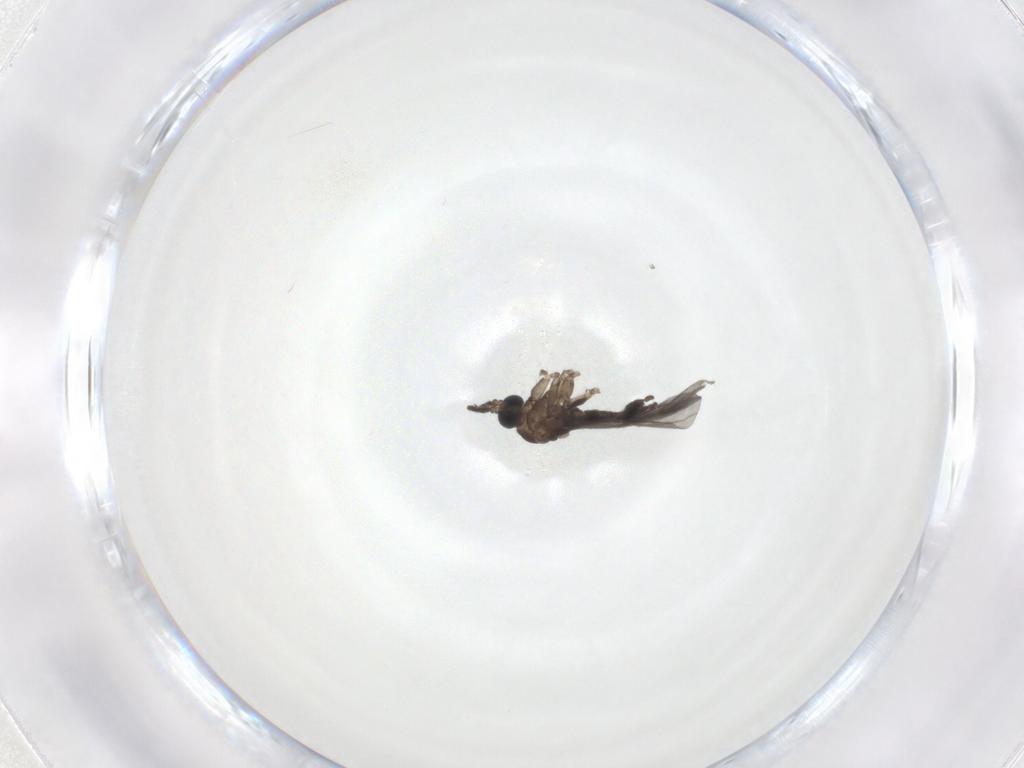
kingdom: Animalia
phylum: Arthropoda
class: Insecta
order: Diptera
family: Sciaridae
